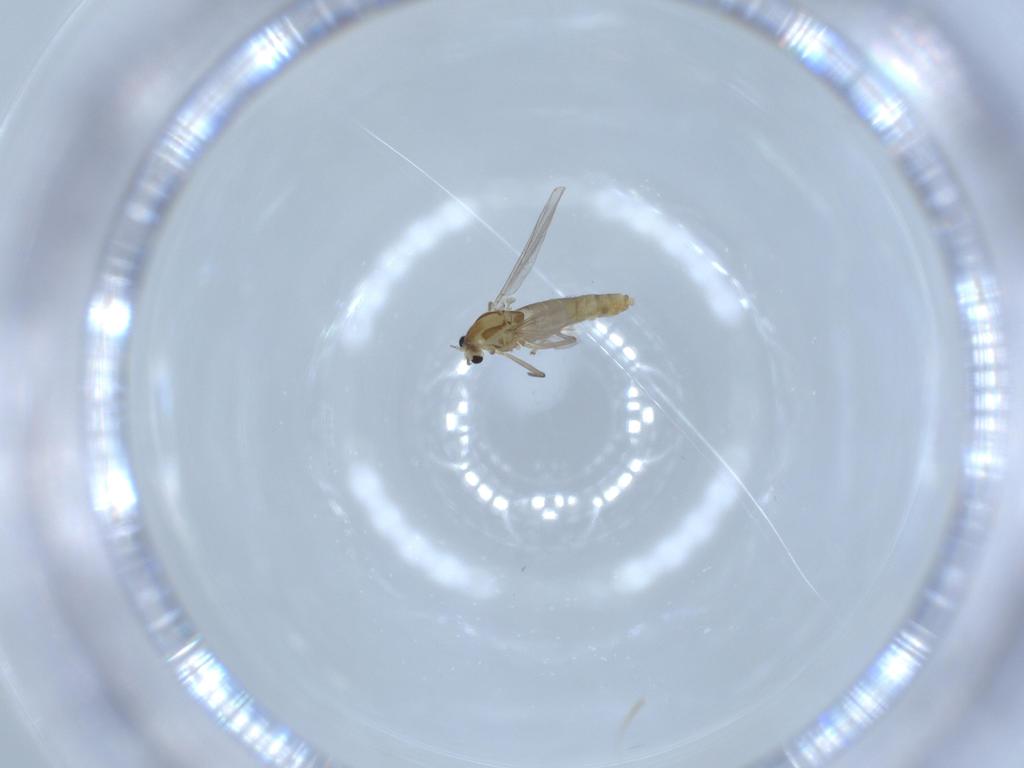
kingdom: Animalia
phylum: Arthropoda
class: Insecta
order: Diptera
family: Chironomidae
